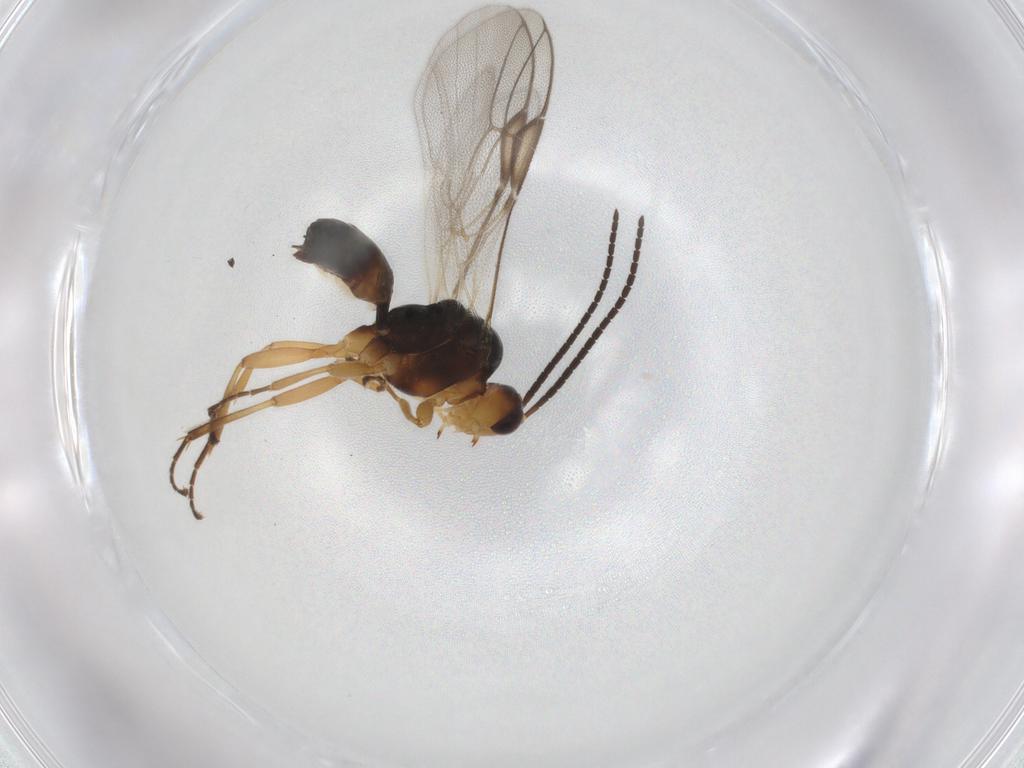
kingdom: Animalia
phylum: Arthropoda
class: Insecta
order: Hymenoptera
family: Braconidae
